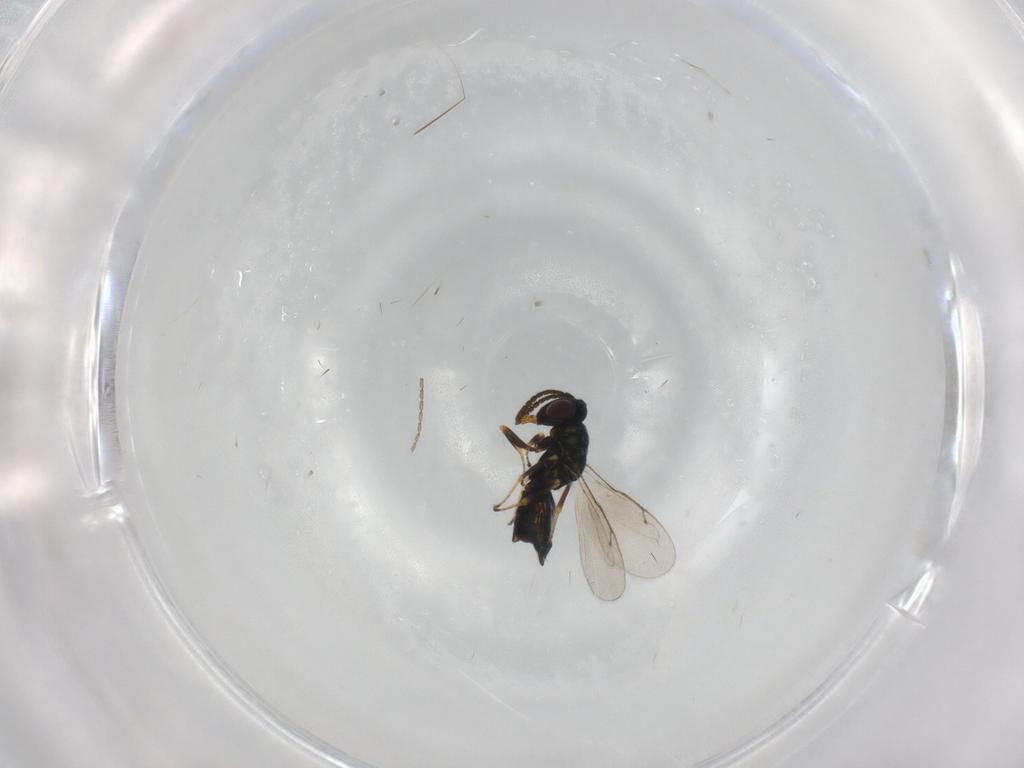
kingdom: Animalia
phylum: Arthropoda
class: Insecta
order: Hymenoptera
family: Pteromalidae
